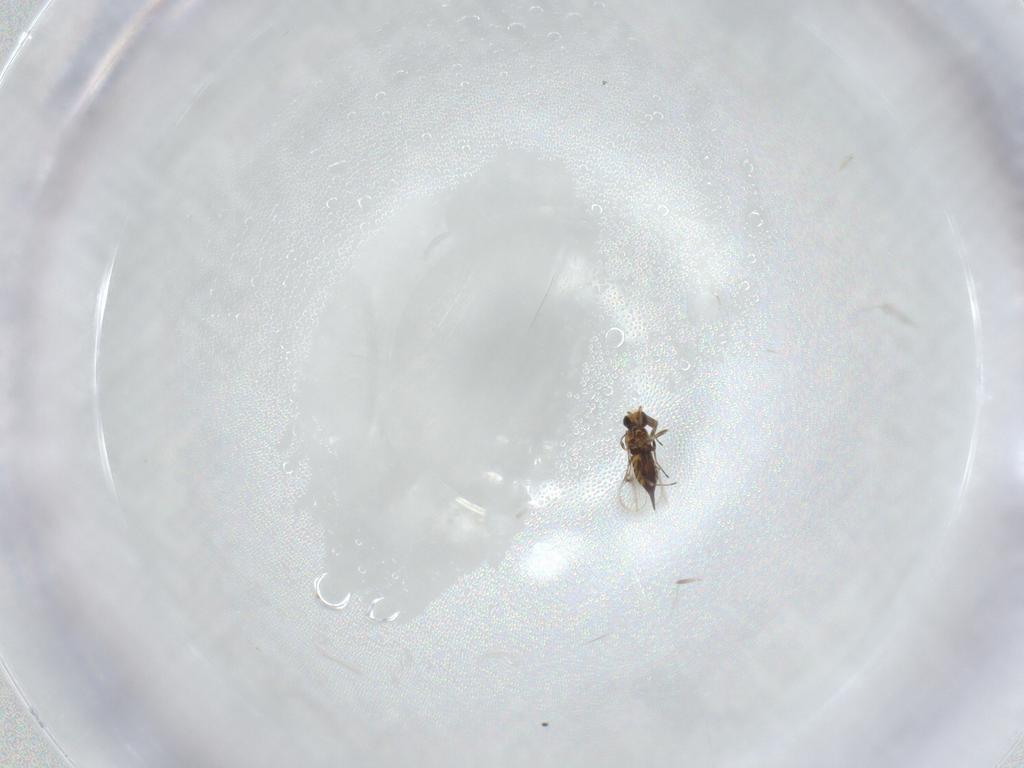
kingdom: Animalia
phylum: Arthropoda
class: Insecta
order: Hymenoptera
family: Trichogrammatidae
